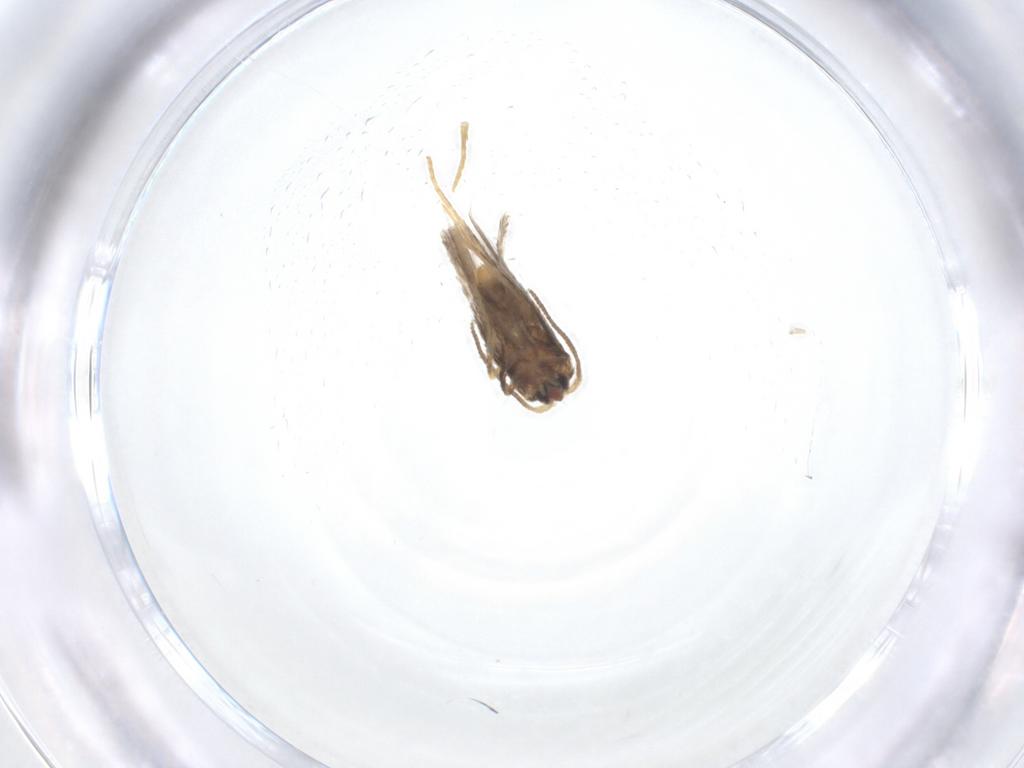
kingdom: Animalia
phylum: Arthropoda
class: Insecta
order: Lepidoptera
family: Nepticulidae
